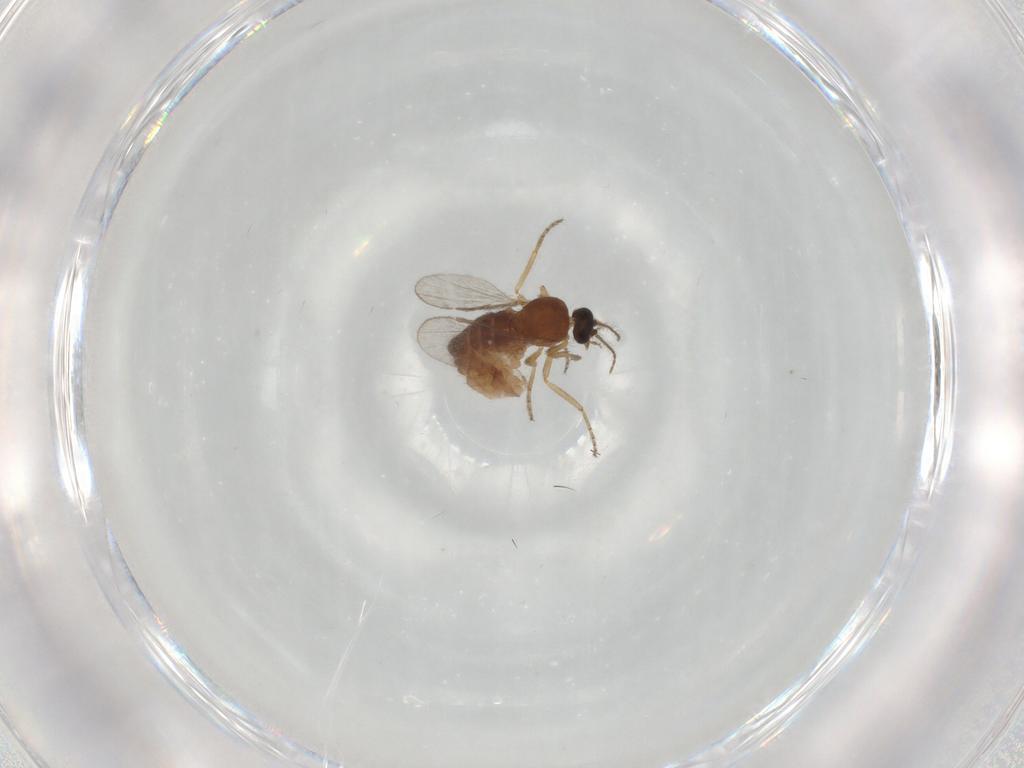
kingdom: Animalia
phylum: Arthropoda
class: Insecta
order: Diptera
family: Ceratopogonidae
